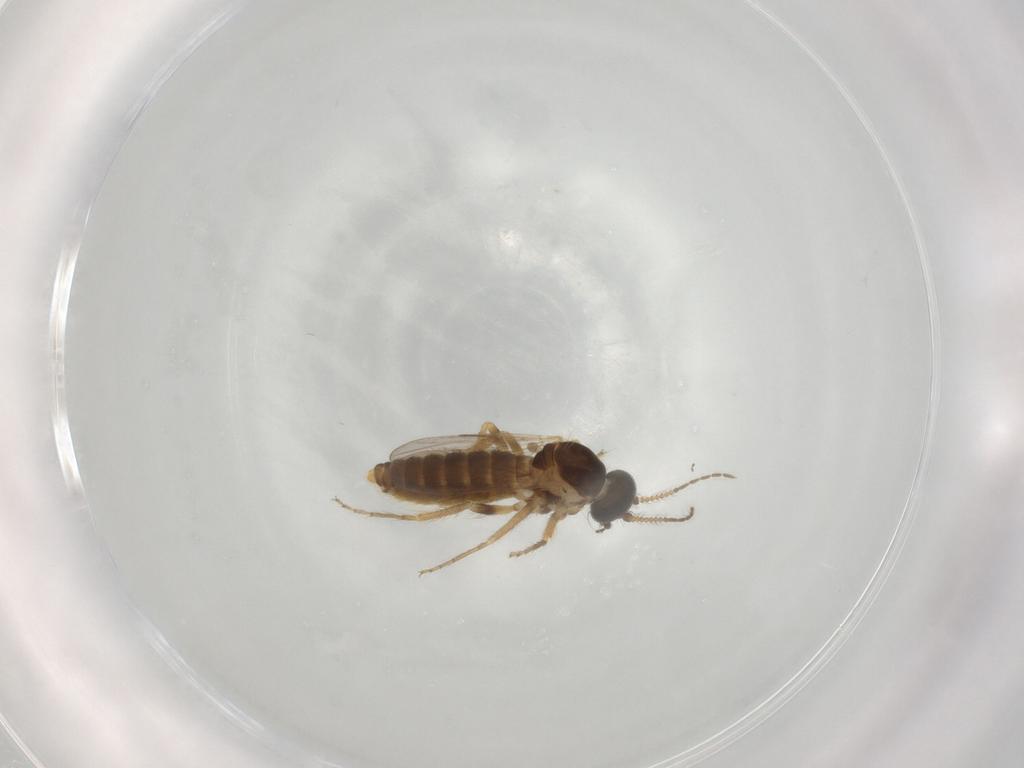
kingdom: Animalia
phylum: Arthropoda
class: Insecta
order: Diptera
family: Ceratopogonidae
